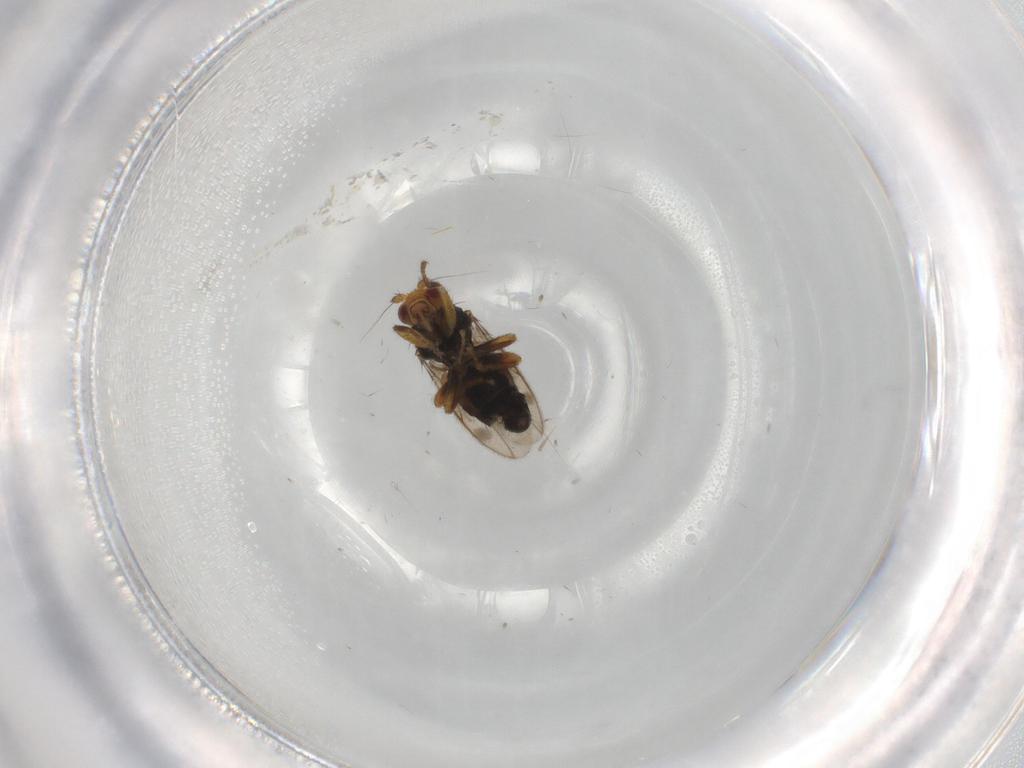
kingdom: Animalia
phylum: Arthropoda
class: Insecta
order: Diptera
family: Sphaeroceridae
